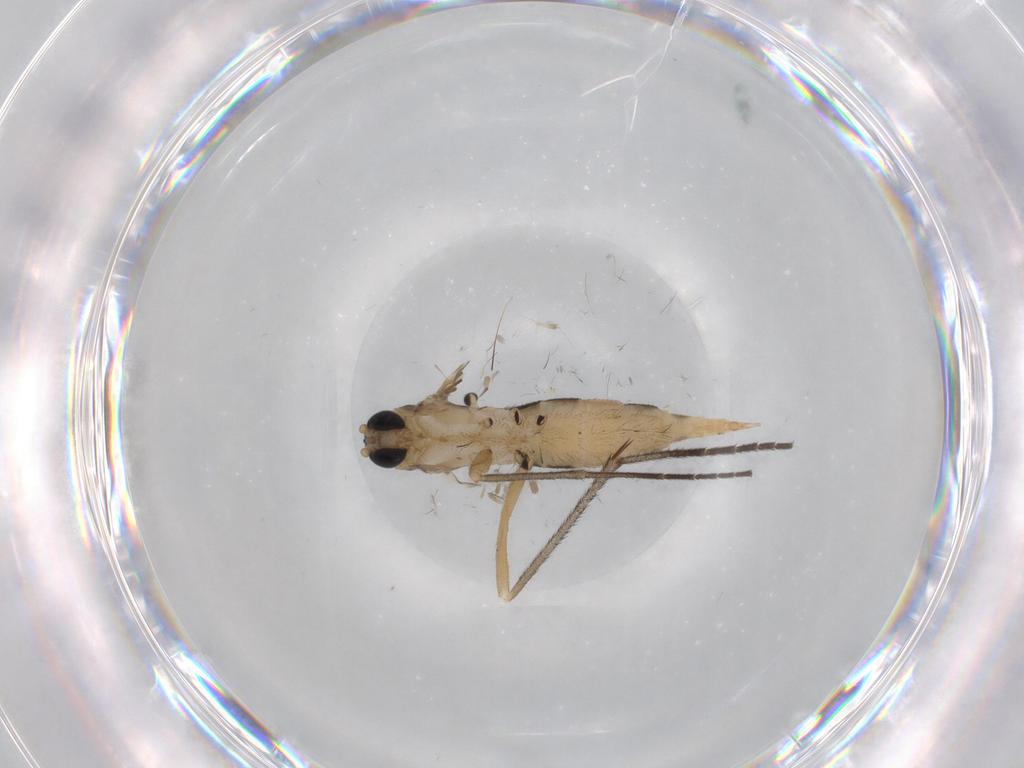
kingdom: Animalia
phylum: Arthropoda
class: Insecta
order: Diptera
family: Sciaridae
